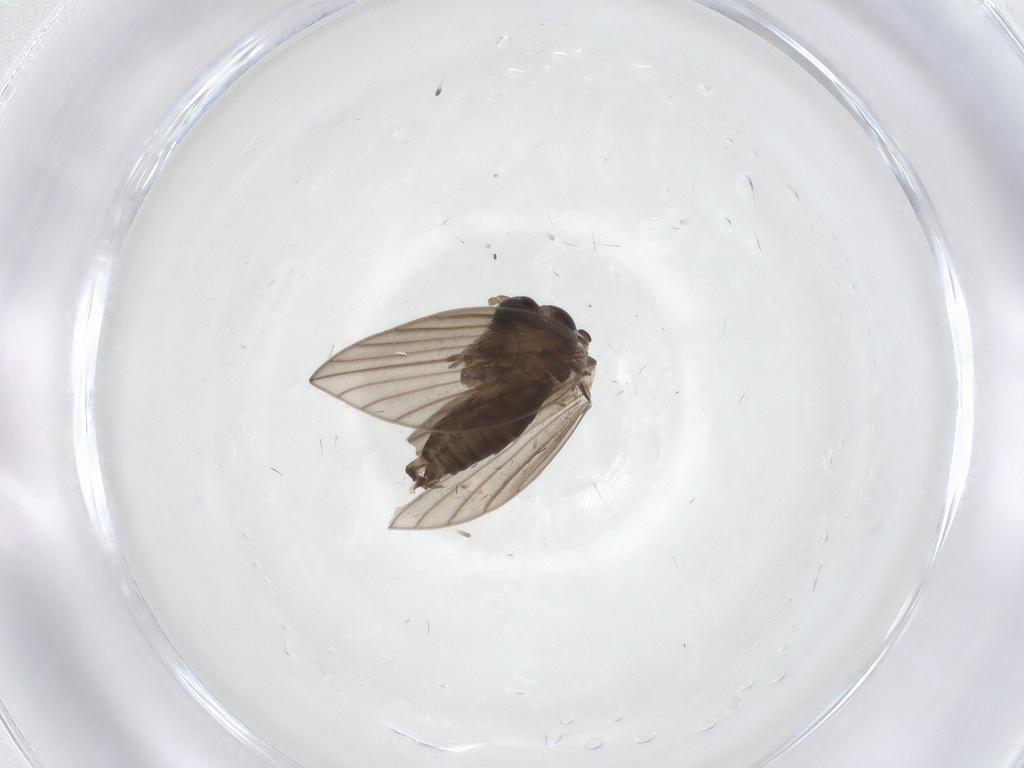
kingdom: Animalia
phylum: Arthropoda
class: Insecta
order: Diptera
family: Psychodidae
